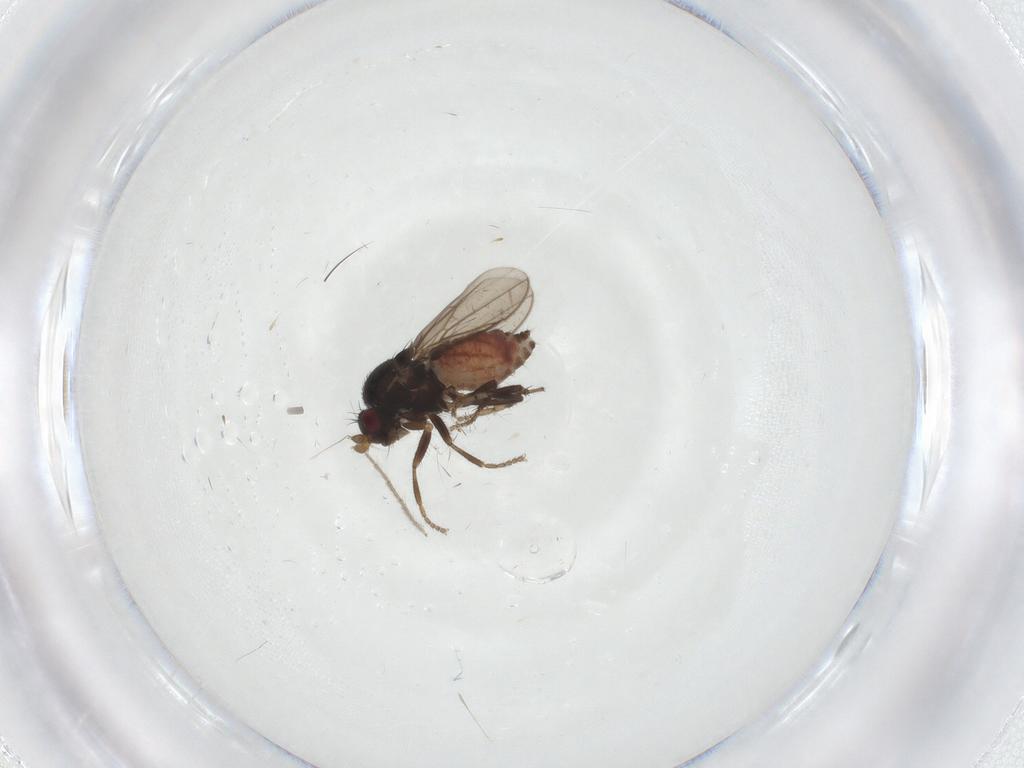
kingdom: Animalia
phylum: Arthropoda
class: Insecta
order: Diptera
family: Sphaeroceridae
